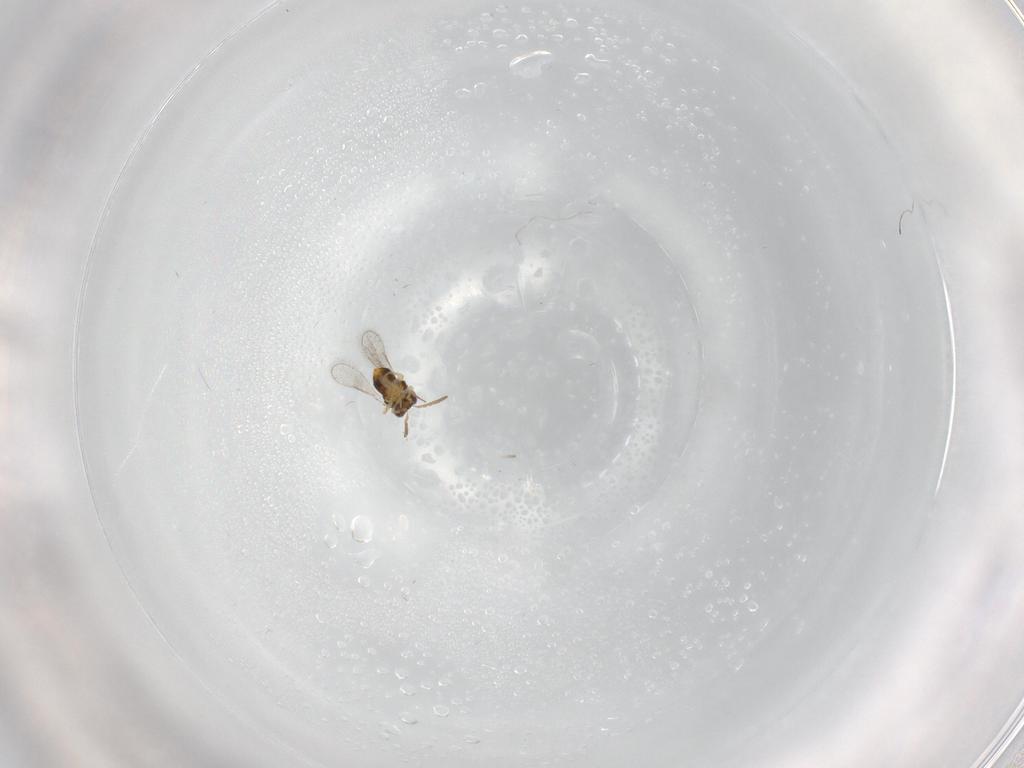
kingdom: Animalia
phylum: Arthropoda
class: Insecta
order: Hymenoptera
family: Aphelinidae
